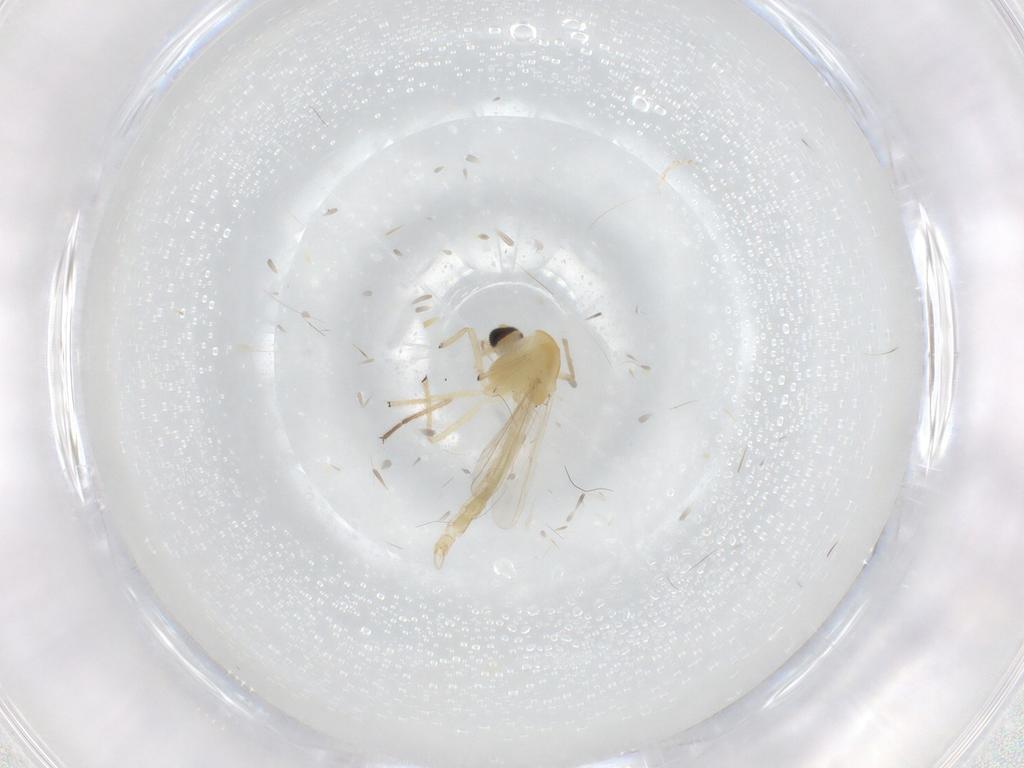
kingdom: Animalia
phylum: Arthropoda
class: Insecta
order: Diptera
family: Chironomidae
